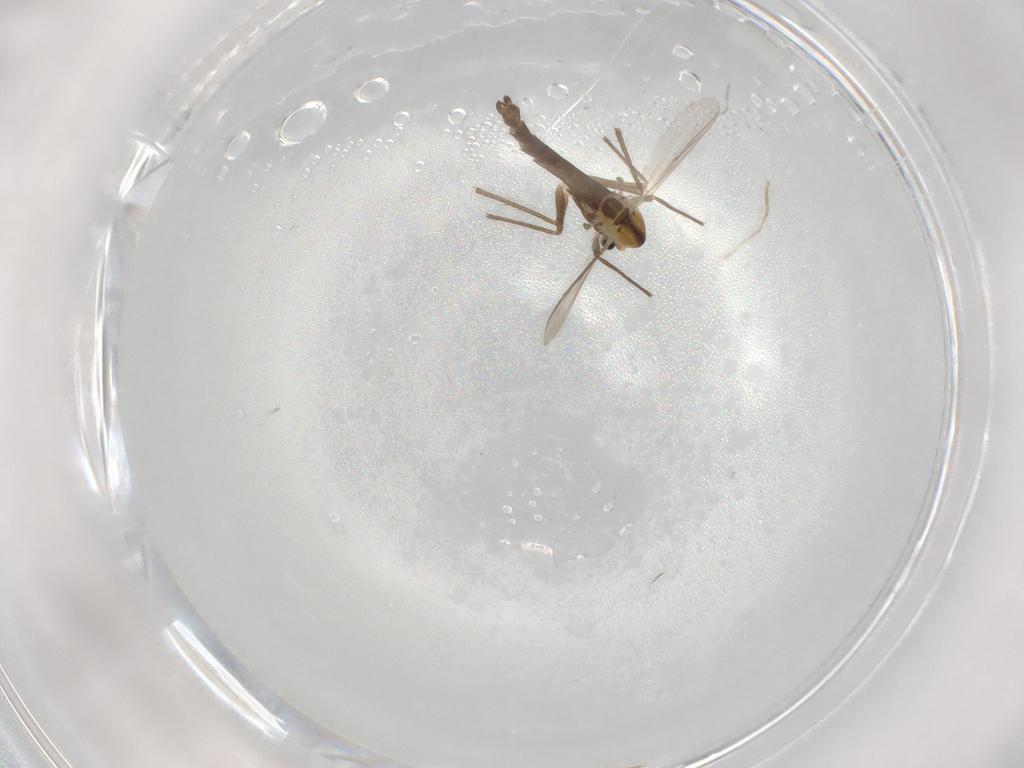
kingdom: Animalia
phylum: Arthropoda
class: Insecta
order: Diptera
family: Chironomidae
